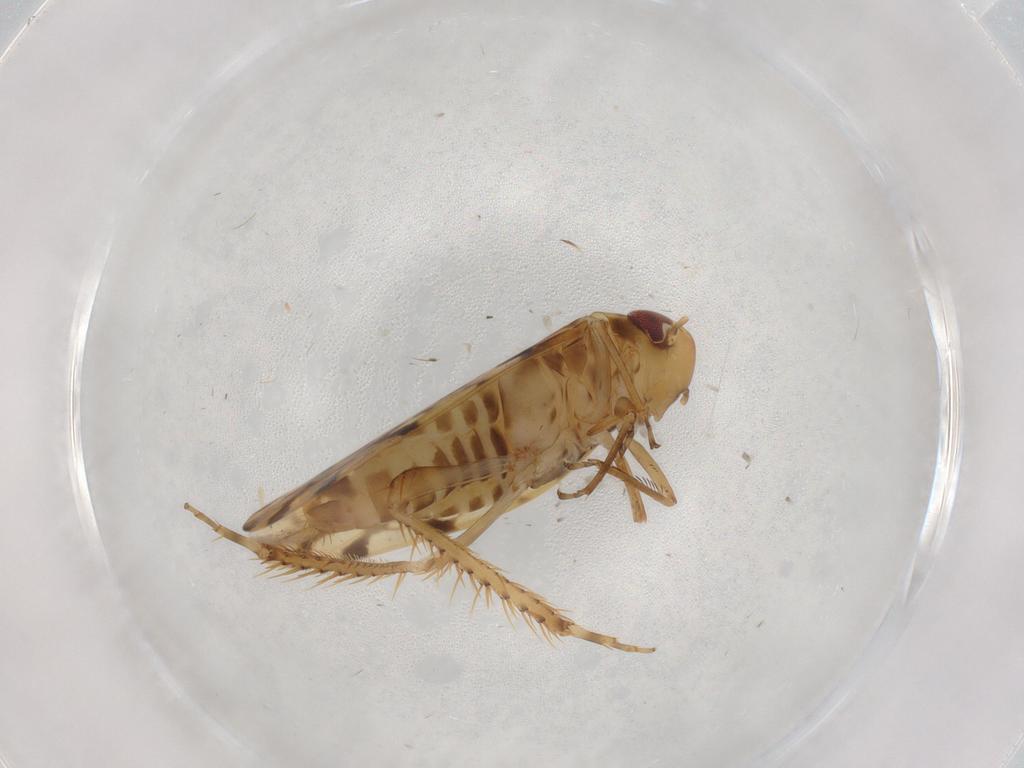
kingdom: Animalia
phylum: Arthropoda
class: Insecta
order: Hemiptera
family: Cicadellidae
